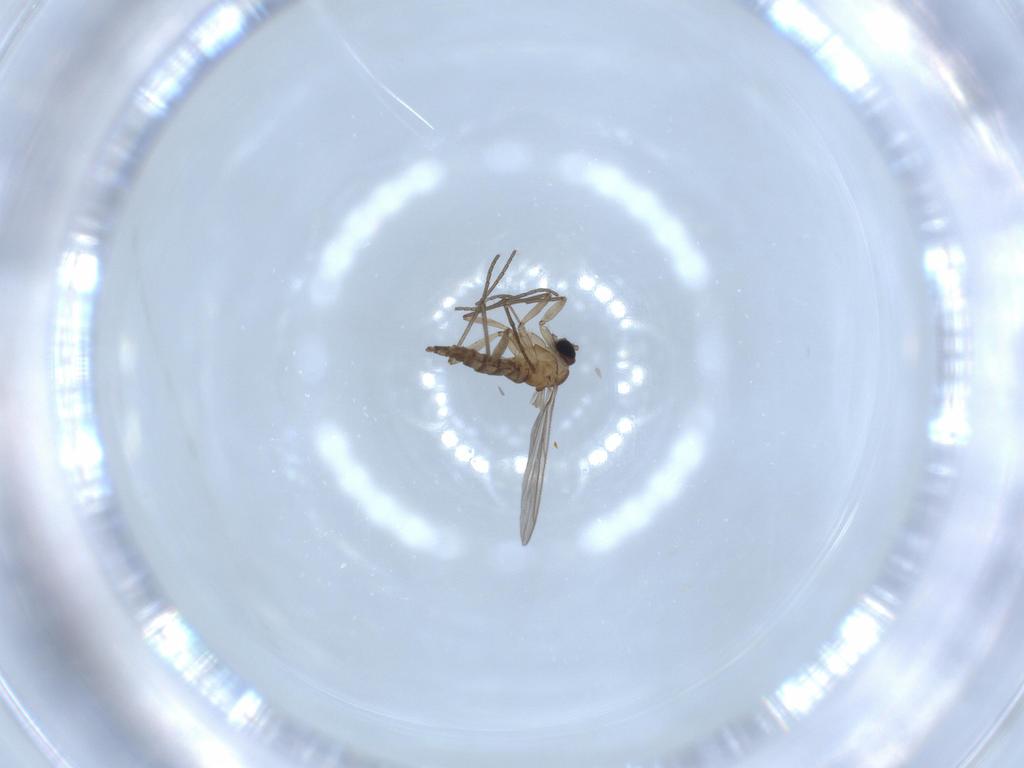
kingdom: Animalia
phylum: Arthropoda
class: Insecta
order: Diptera
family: Sciaridae
